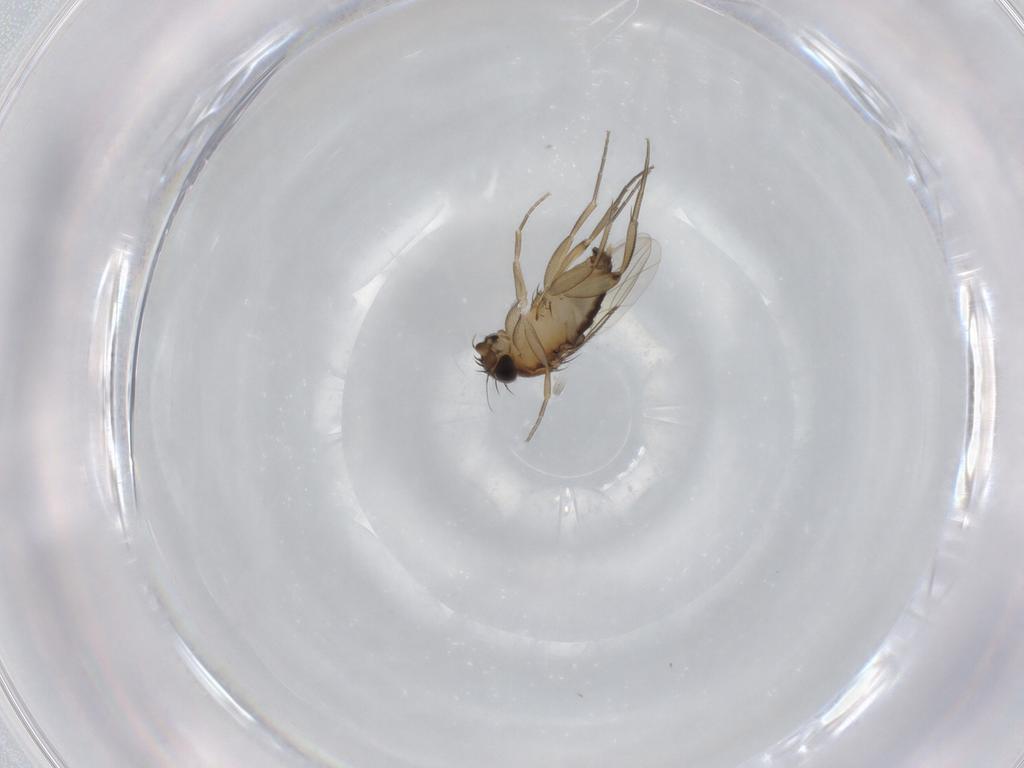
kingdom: Animalia
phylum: Arthropoda
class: Insecta
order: Diptera
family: Phoridae
